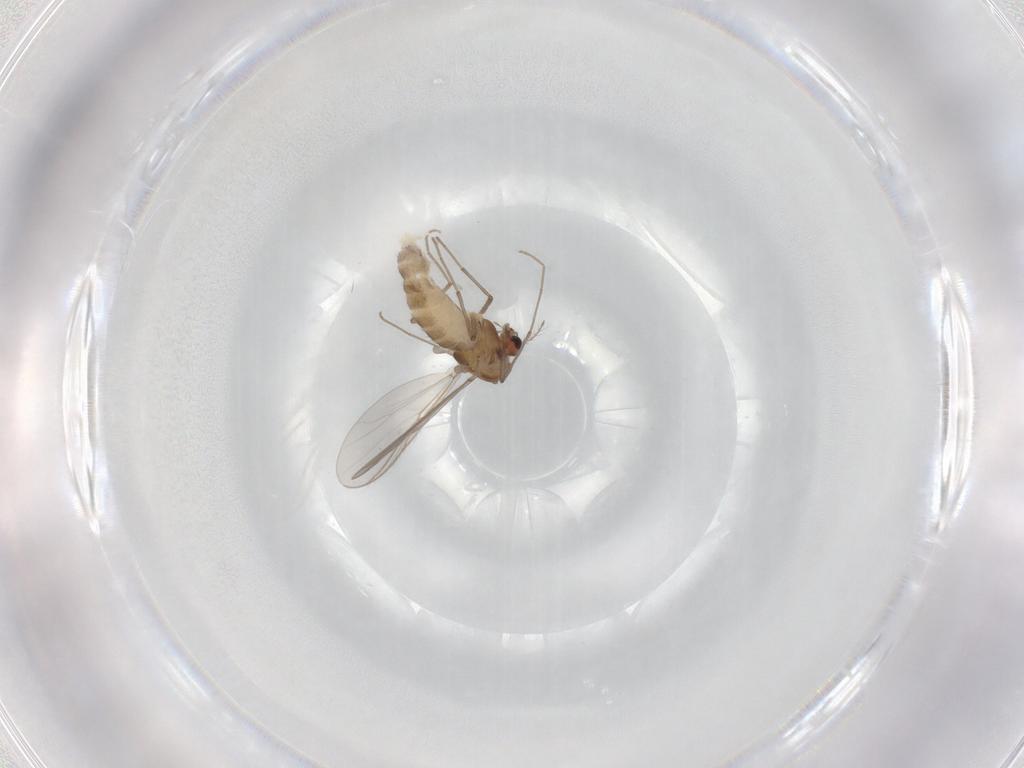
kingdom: Animalia
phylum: Arthropoda
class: Insecta
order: Diptera
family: Chironomidae
